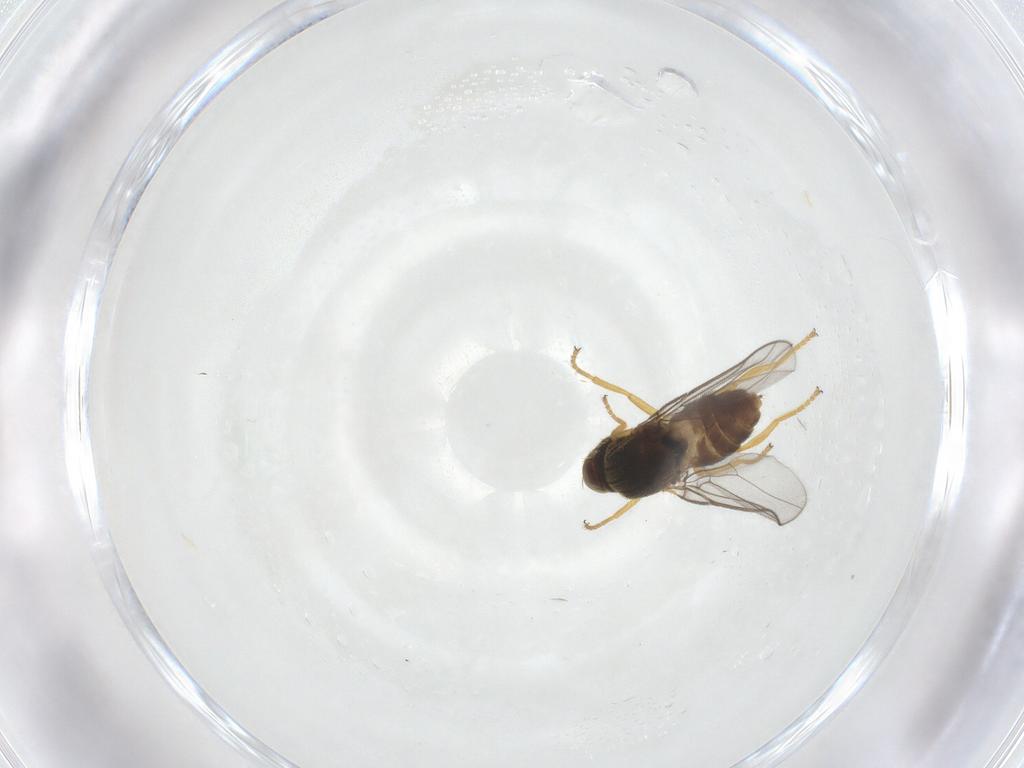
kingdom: Animalia
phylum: Arthropoda
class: Insecta
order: Diptera
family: Chloropidae
